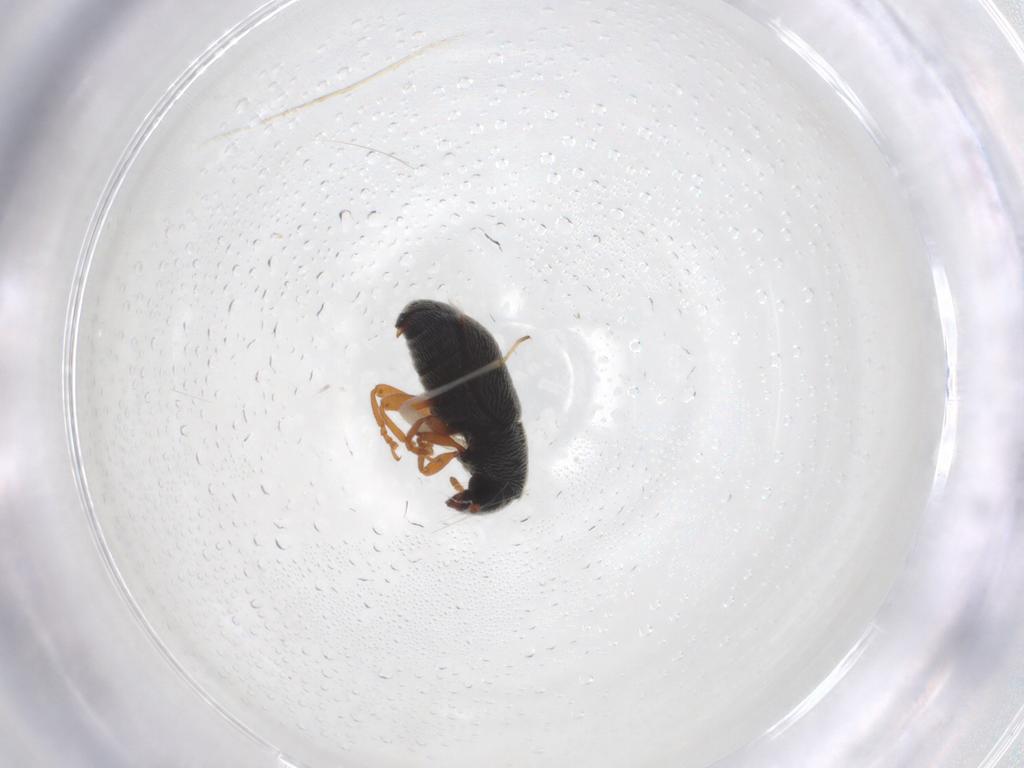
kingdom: Animalia
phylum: Arthropoda
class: Insecta
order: Coleoptera
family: Anthribidae
